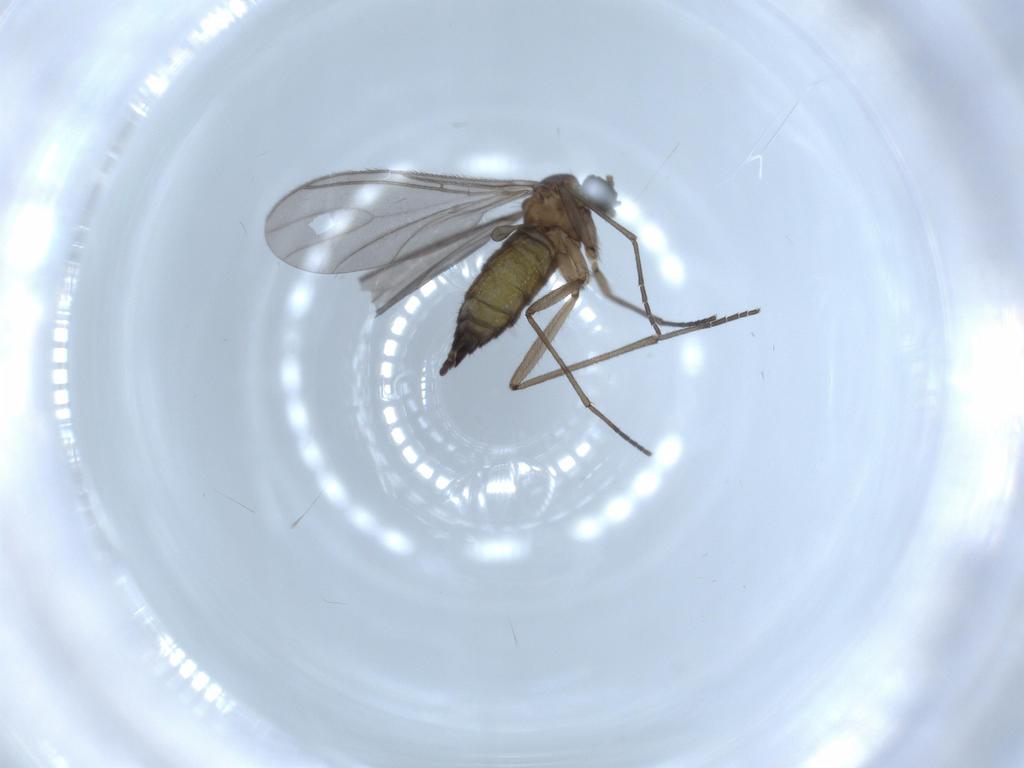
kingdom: Animalia
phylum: Arthropoda
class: Insecta
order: Diptera
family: Sciaridae
